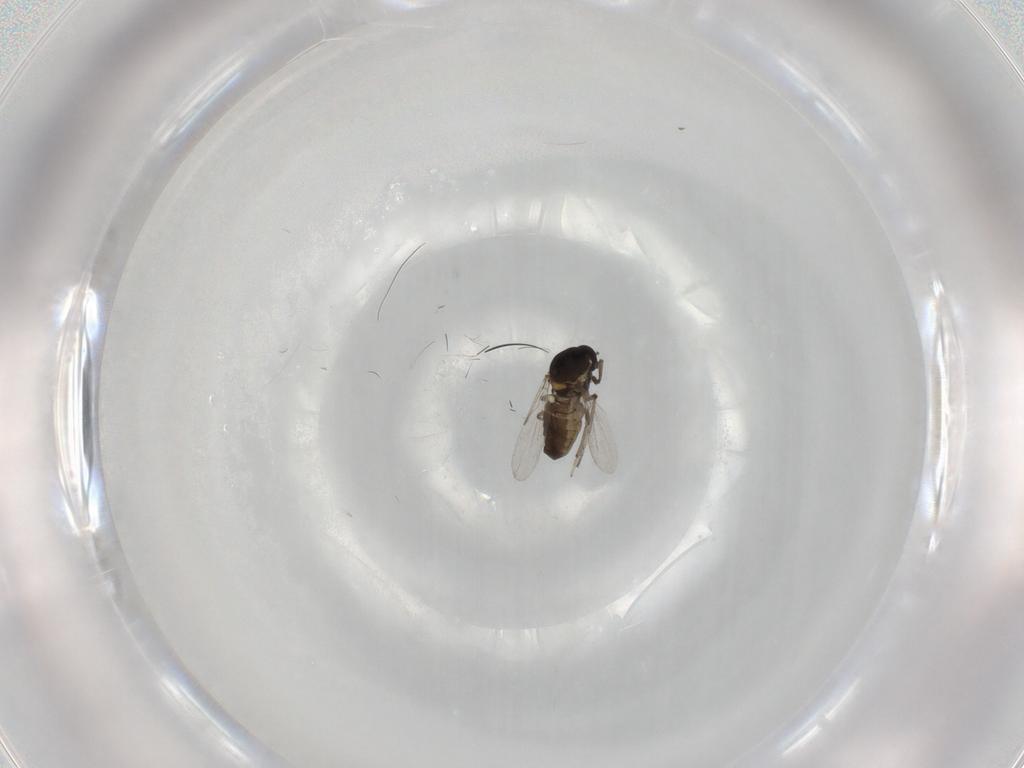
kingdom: Animalia
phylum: Arthropoda
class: Insecta
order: Diptera
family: Ceratopogonidae
